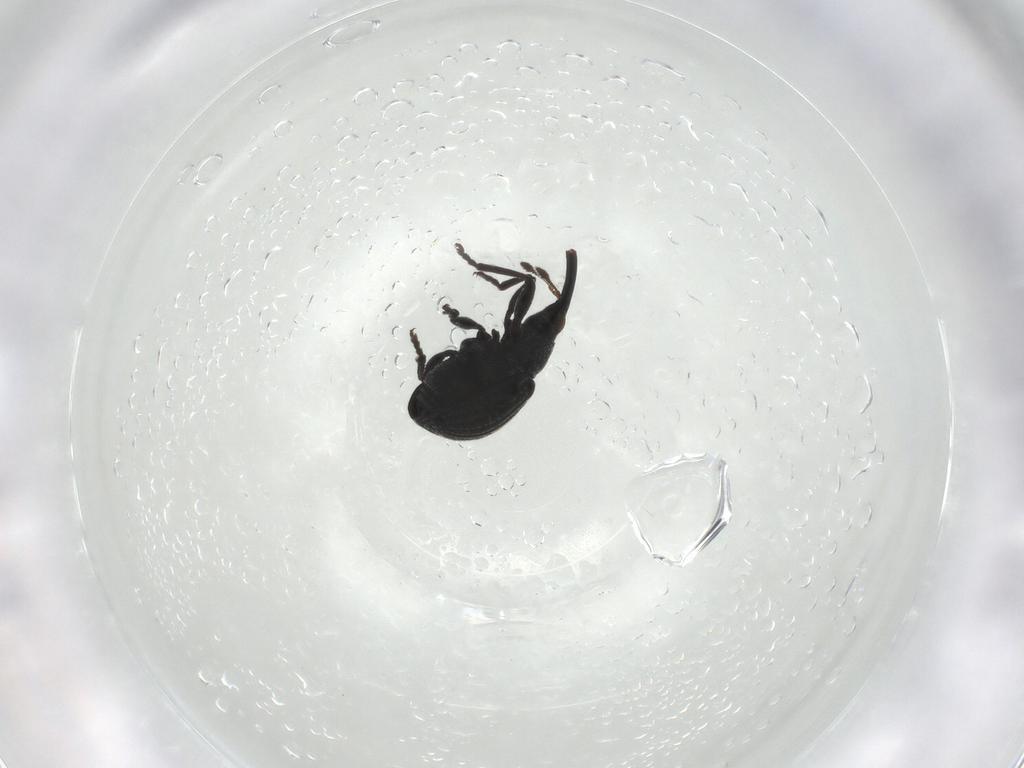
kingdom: Animalia
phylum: Arthropoda
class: Insecta
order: Coleoptera
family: Brentidae
